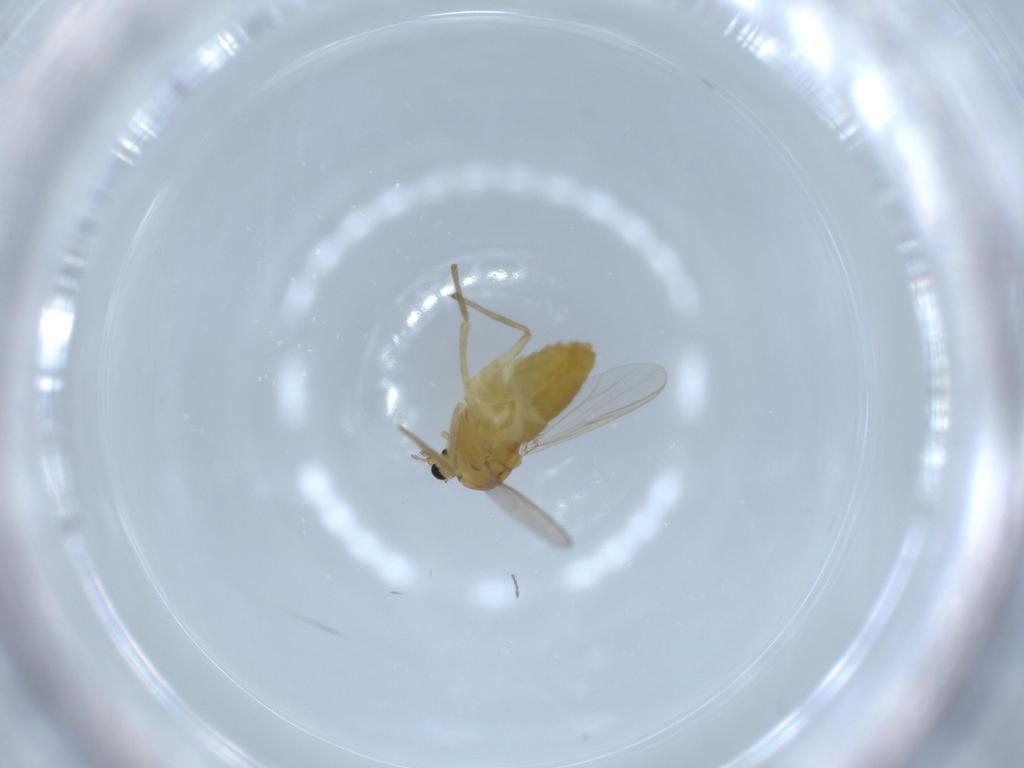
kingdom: Animalia
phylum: Arthropoda
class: Insecta
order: Diptera
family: Chironomidae
